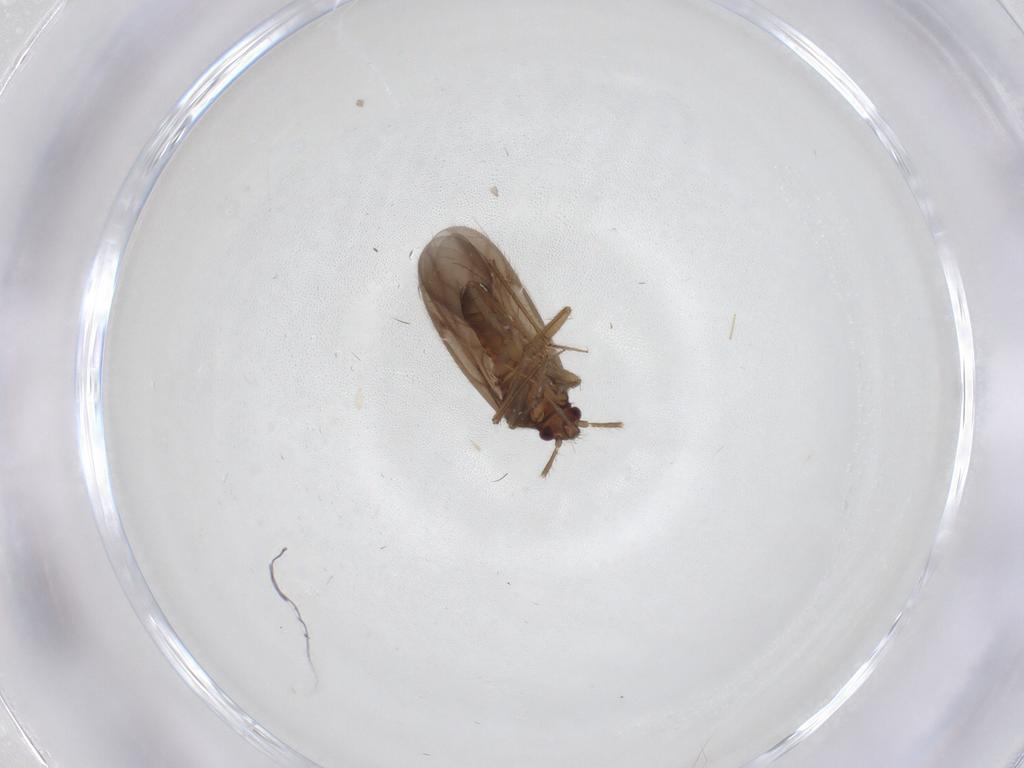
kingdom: Animalia
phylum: Arthropoda
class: Insecta
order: Hemiptera
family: Ceratocombidae
